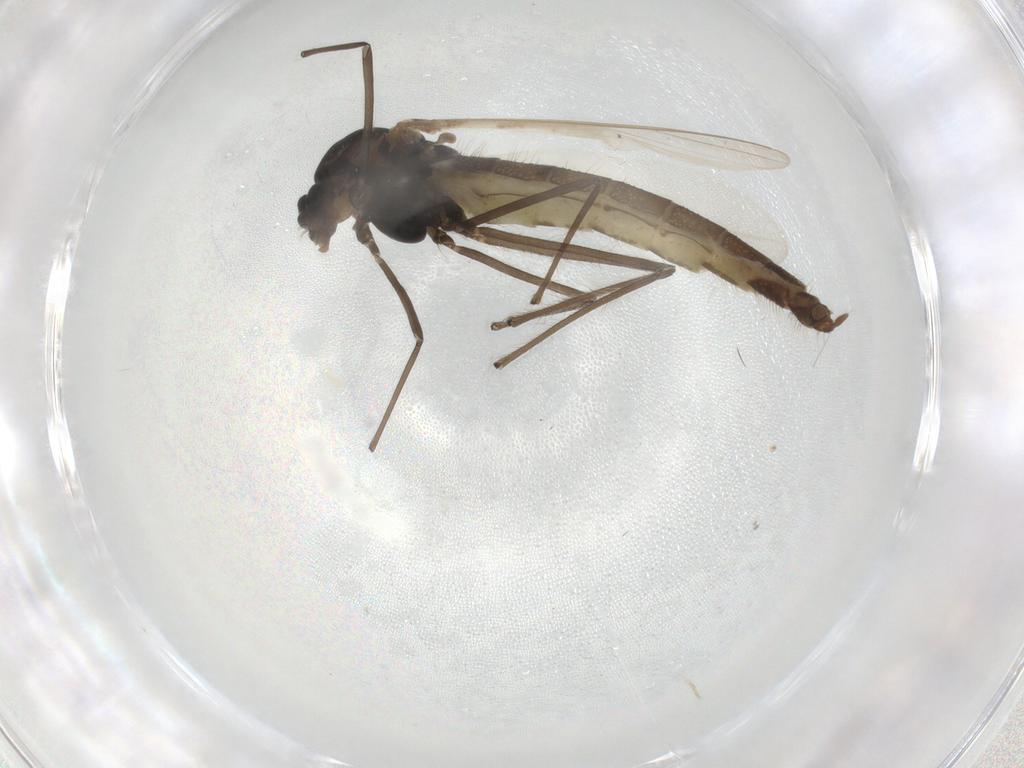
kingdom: Animalia
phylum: Arthropoda
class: Insecta
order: Diptera
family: Chironomidae
